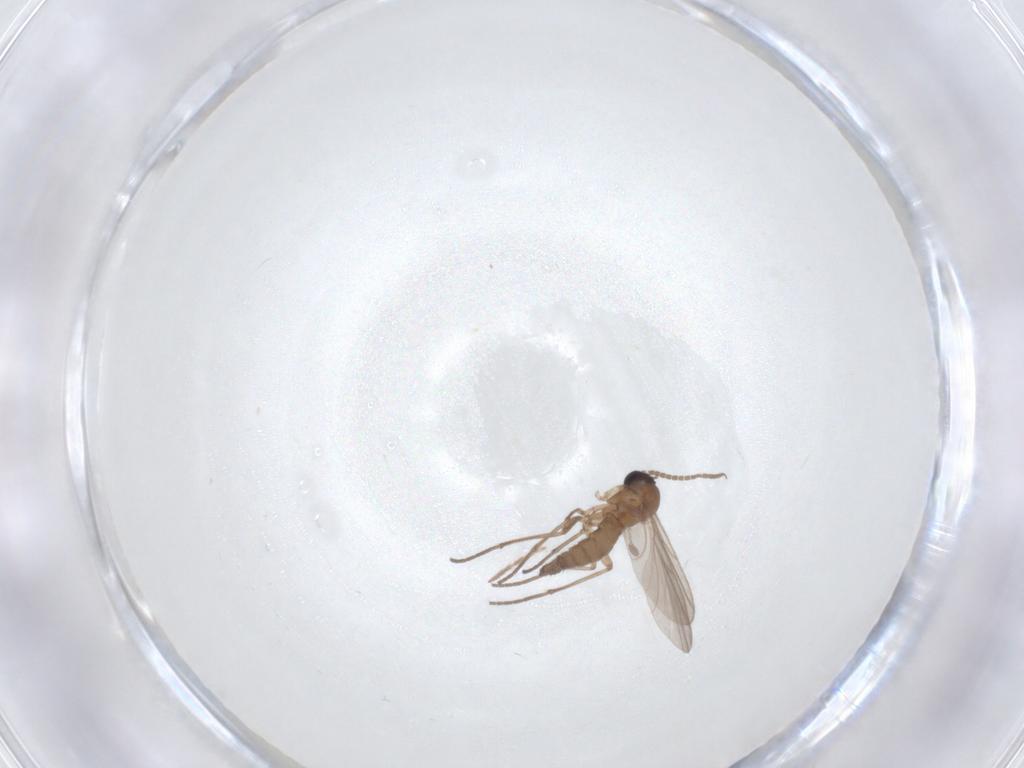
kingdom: Animalia
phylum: Arthropoda
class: Insecta
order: Diptera
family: Sciaridae
